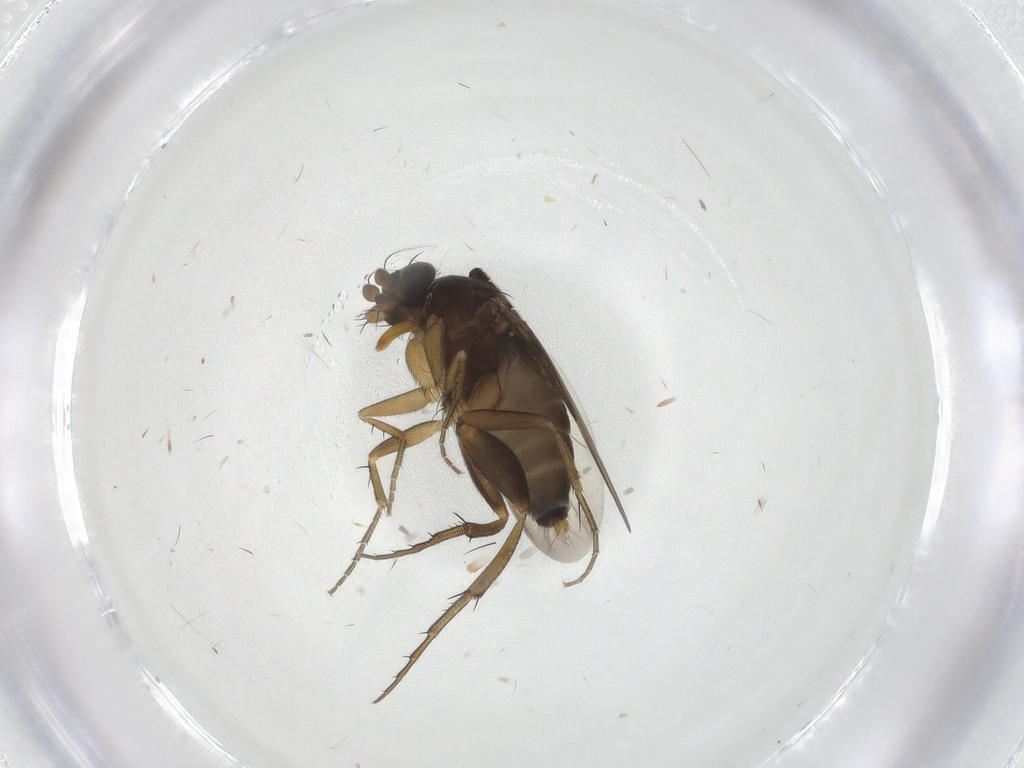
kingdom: Animalia
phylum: Arthropoda
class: Insecta
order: Diptera
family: Phoridae
